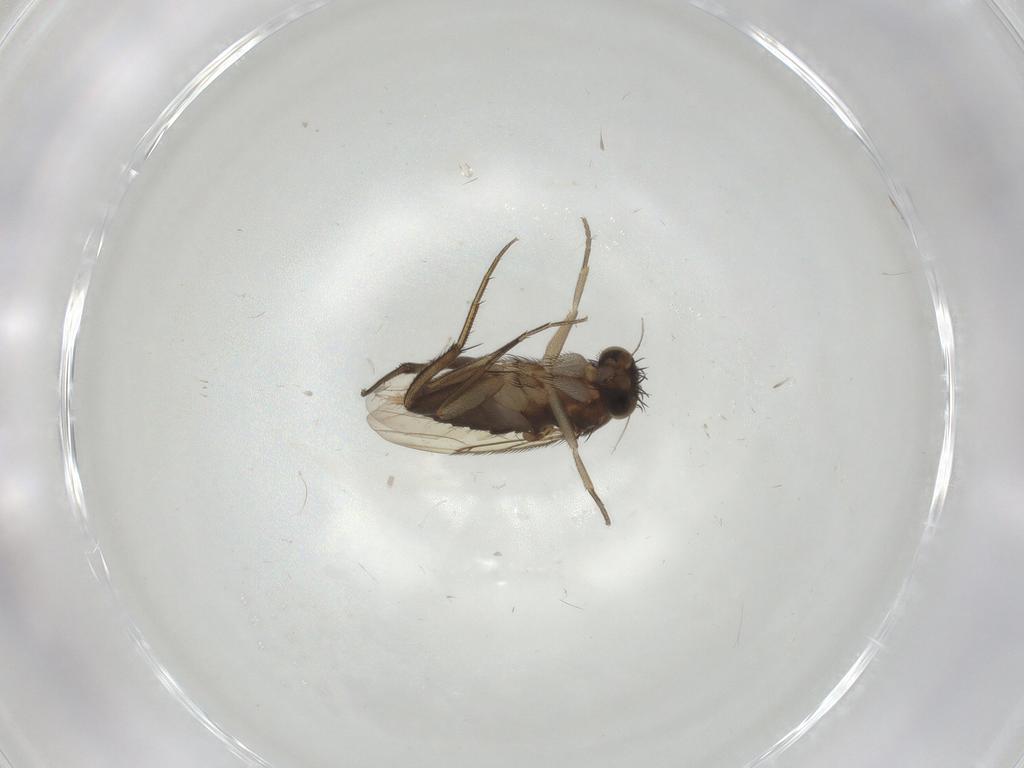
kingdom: Animalia
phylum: Arthropoda
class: Insecta
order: Diptera
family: Phoridae
